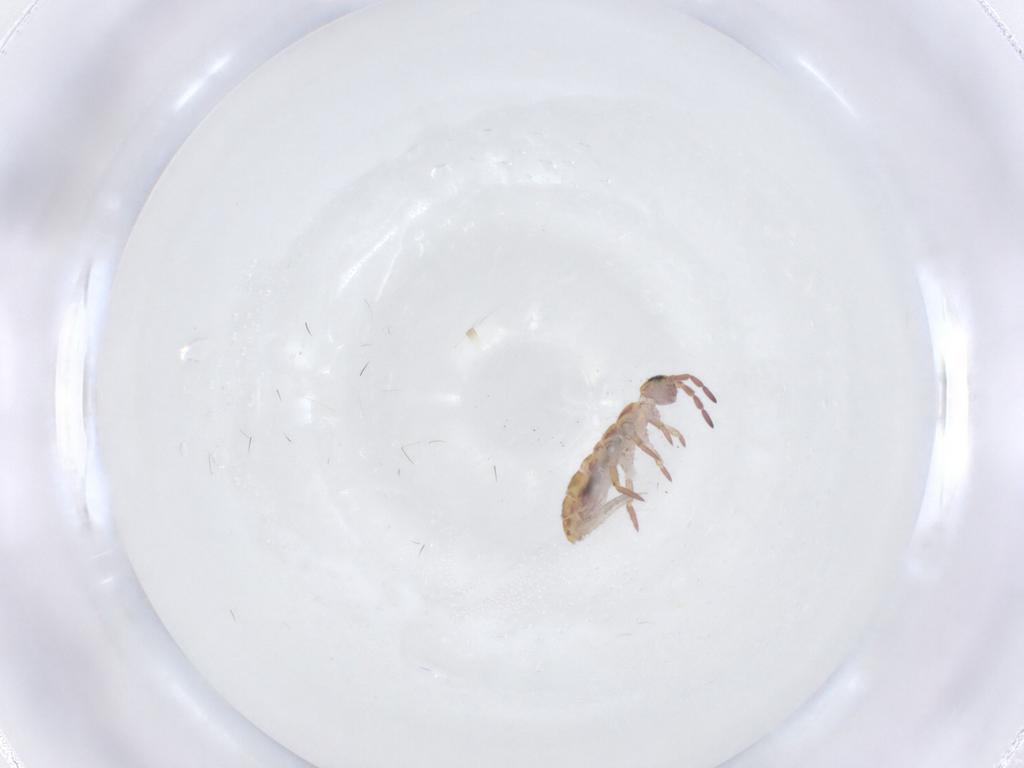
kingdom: Animalia
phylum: Arthropoda
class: Collembola
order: Entomobryomorpha
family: Isotomidae
